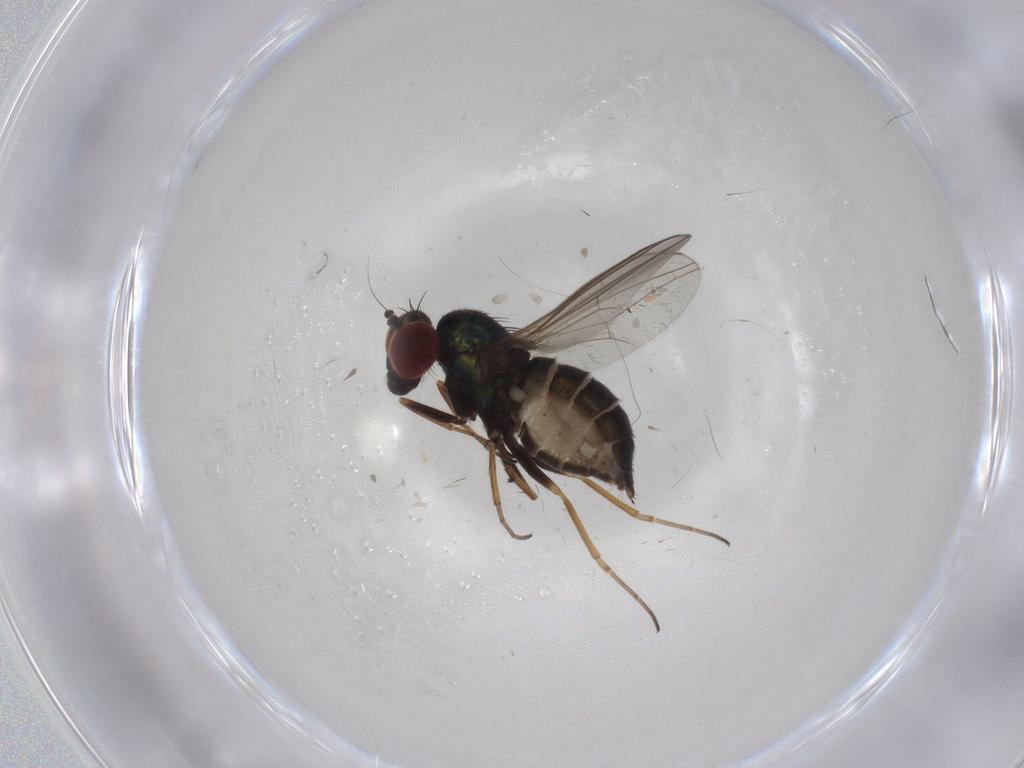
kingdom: Animalia
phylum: Arthropoda
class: Insecta
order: Diptera
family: Dolichopodidae
